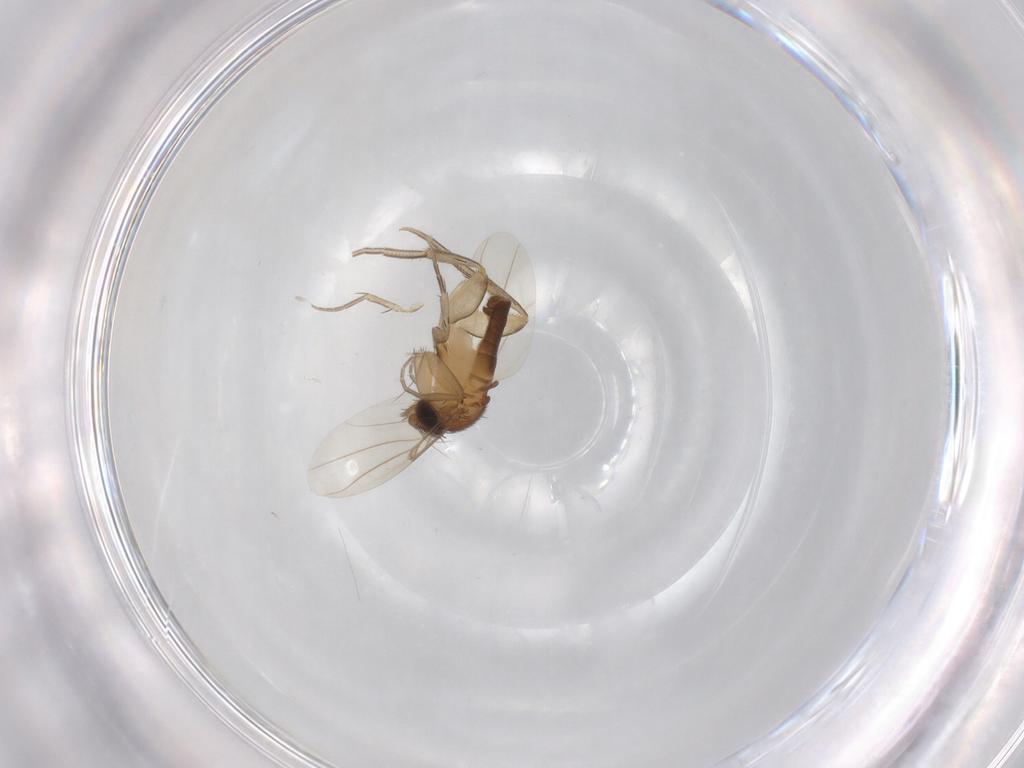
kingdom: Animalia
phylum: Arthropoda
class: Insecta
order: Diptera
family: Phoridae
